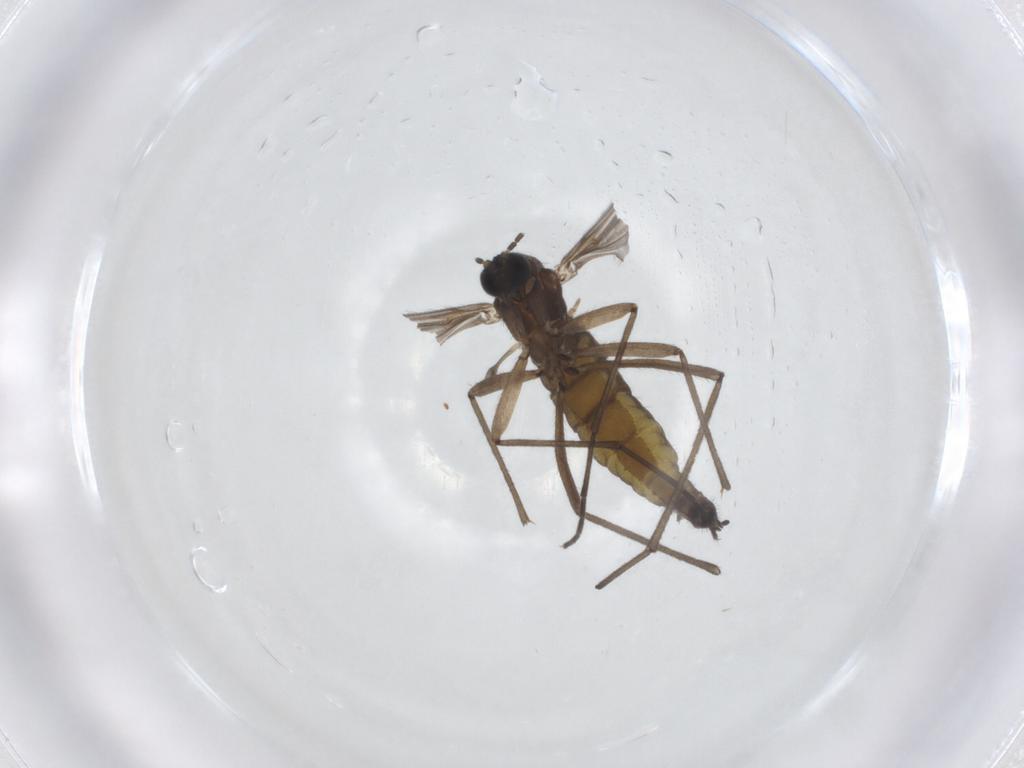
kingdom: Animalia
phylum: Arthropoda
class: Insecta
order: Diptera
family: Sciaridae
